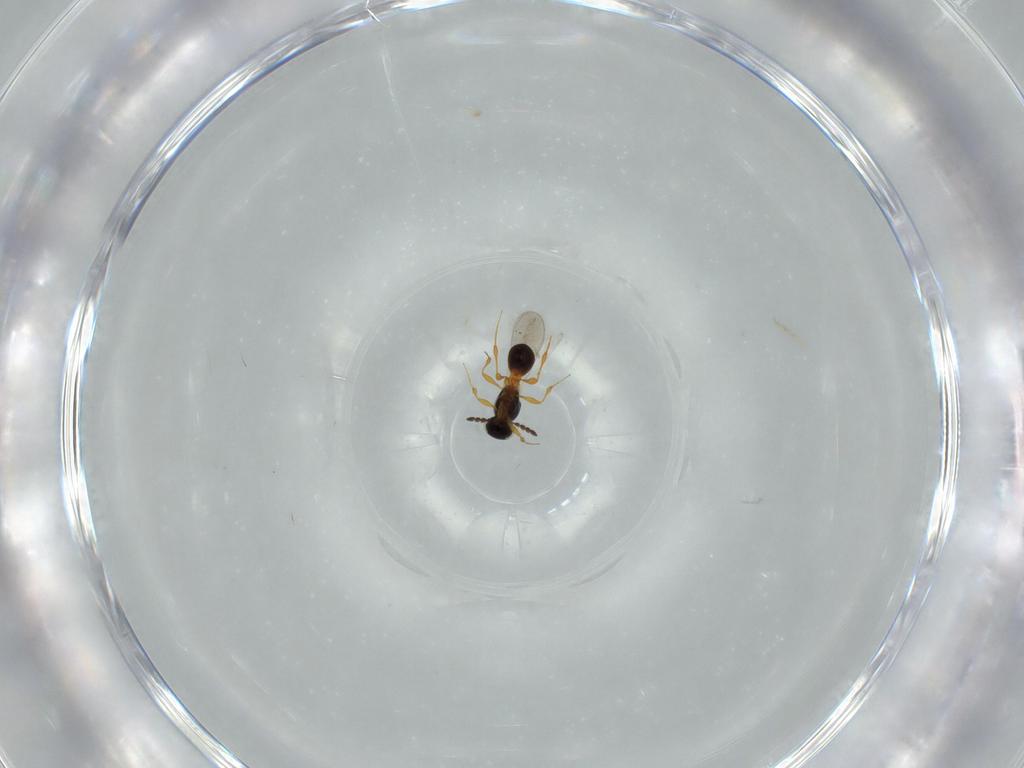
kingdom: Animalia
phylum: Arthropoda
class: Insecta
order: Hymenoptera
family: Platygastridae
